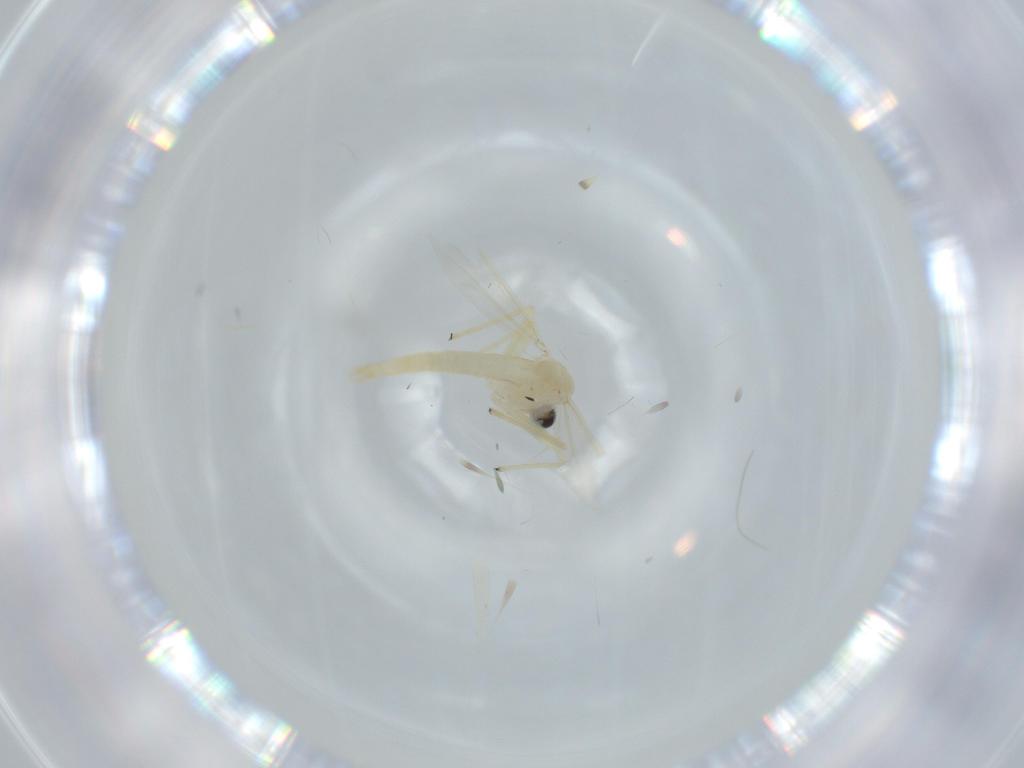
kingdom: Animalia
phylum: Arthropoda
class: Insecta
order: Diptera
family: Chironomidae
